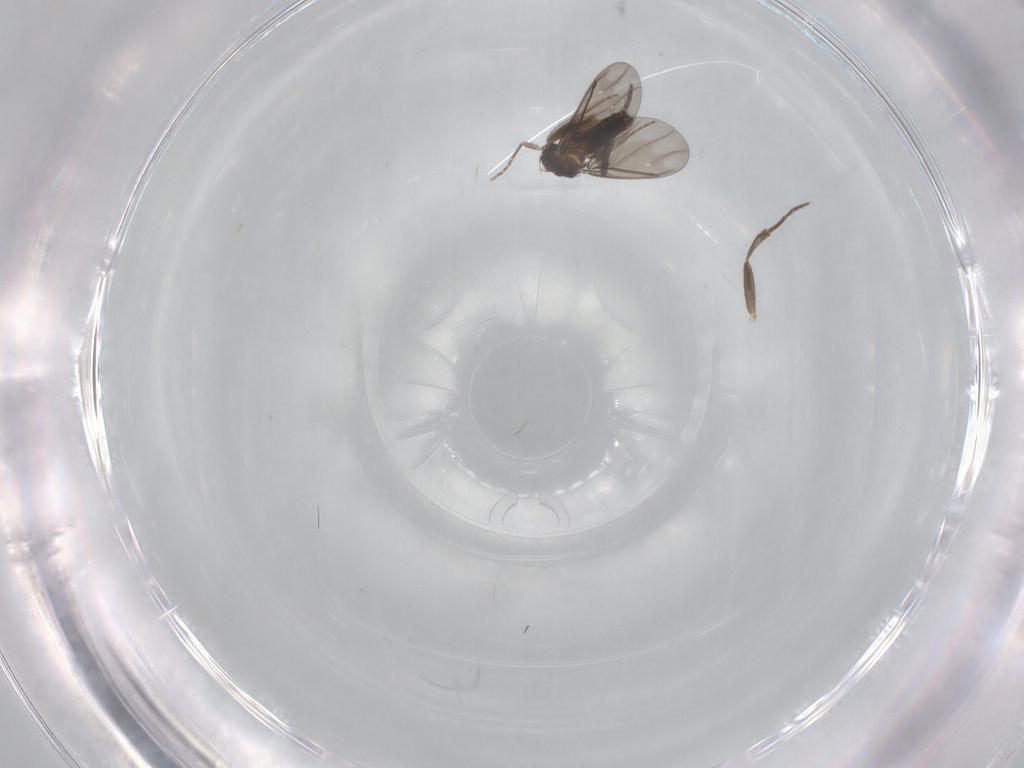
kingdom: Animalia
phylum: Arthropoda
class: Insecta
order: Diptera
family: Phoridae
